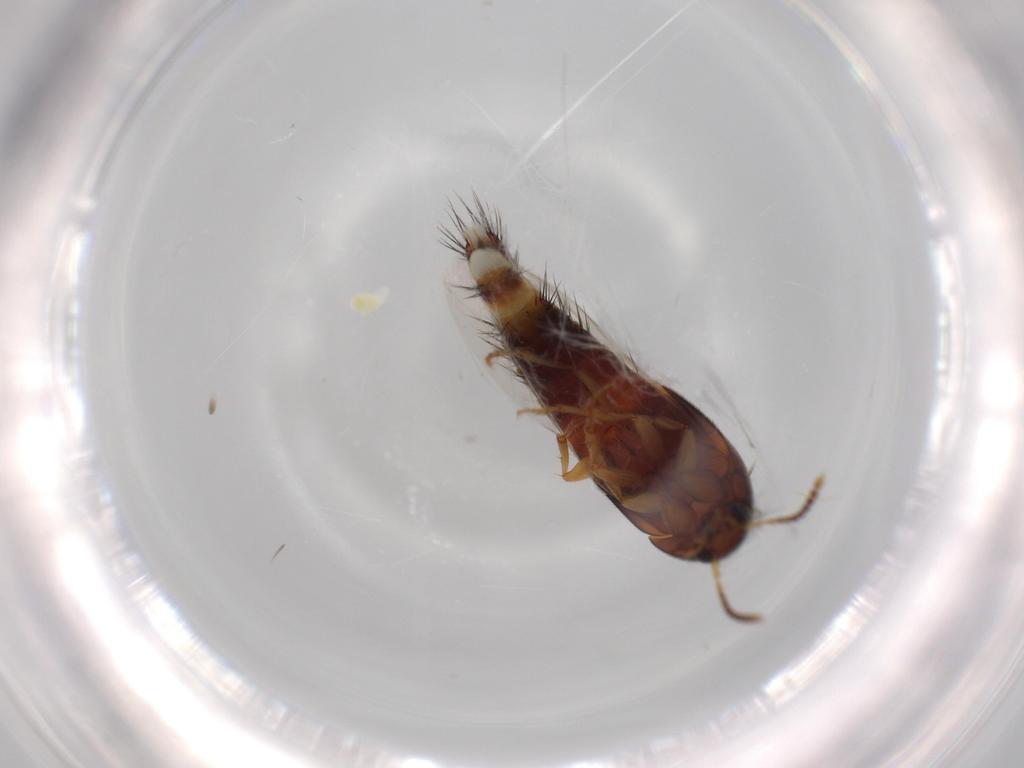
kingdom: Animalia
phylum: Arthropoda
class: Insecta
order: Coleoptera
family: Staphylinidae
